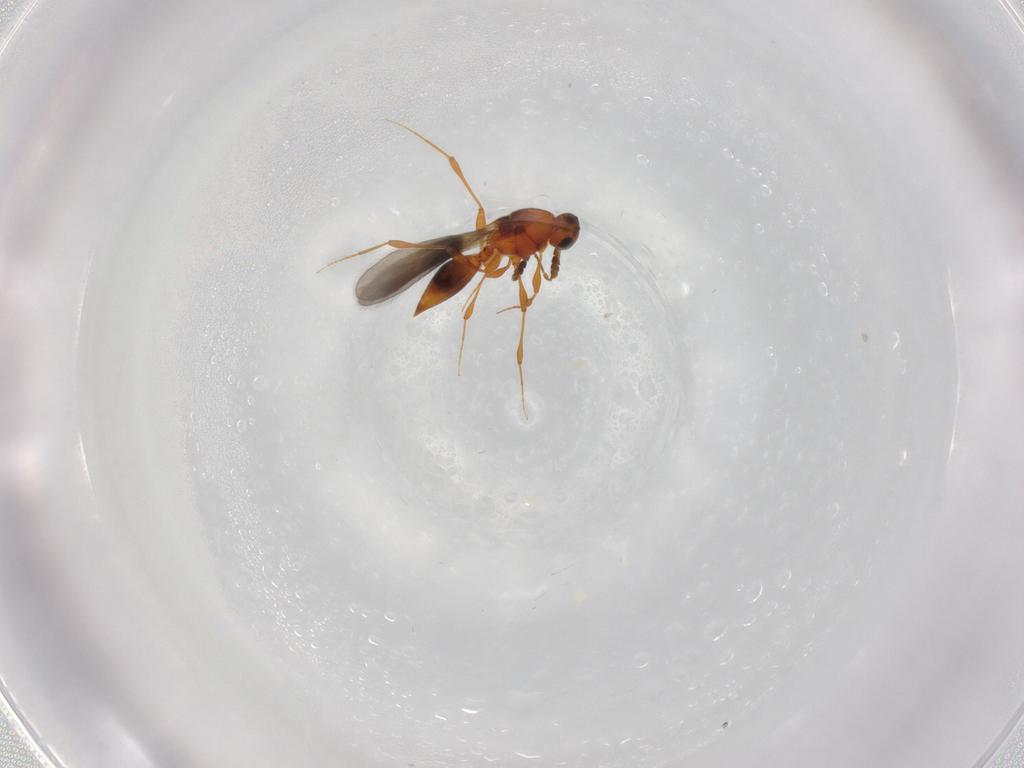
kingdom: Animalia
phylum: Arthropoda
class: Insecta
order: Hymenoptera
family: Platygastridae
